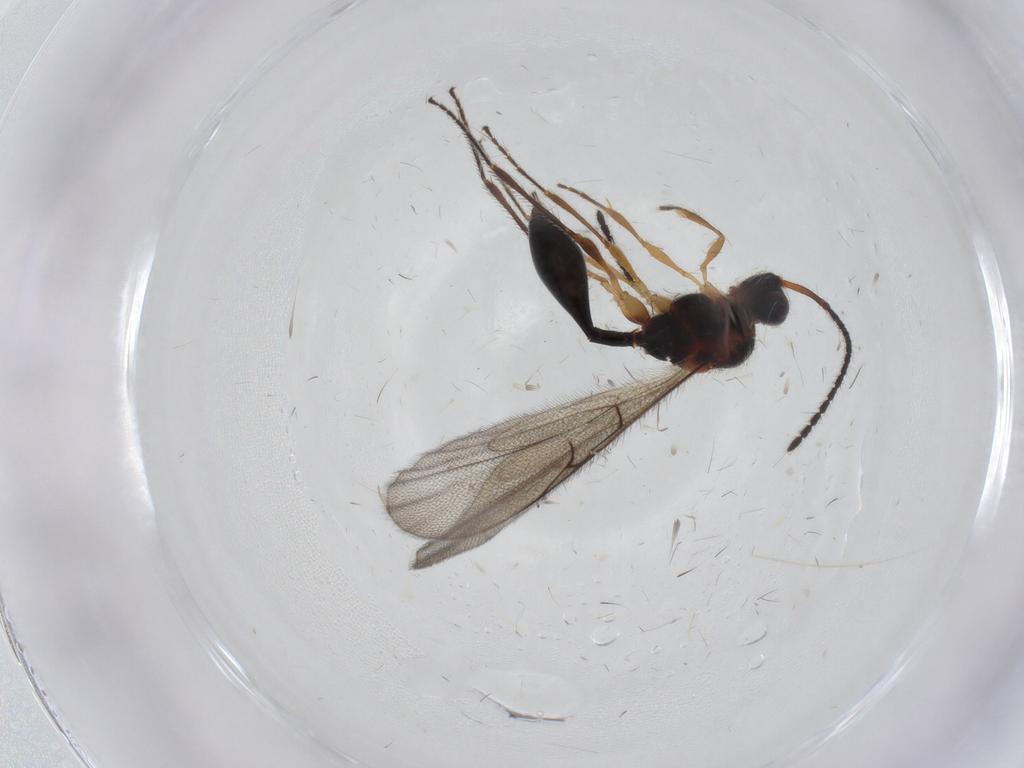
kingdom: Animalia
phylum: Arthropoda
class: Insecta
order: Hymenoptera
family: Diapriidae
